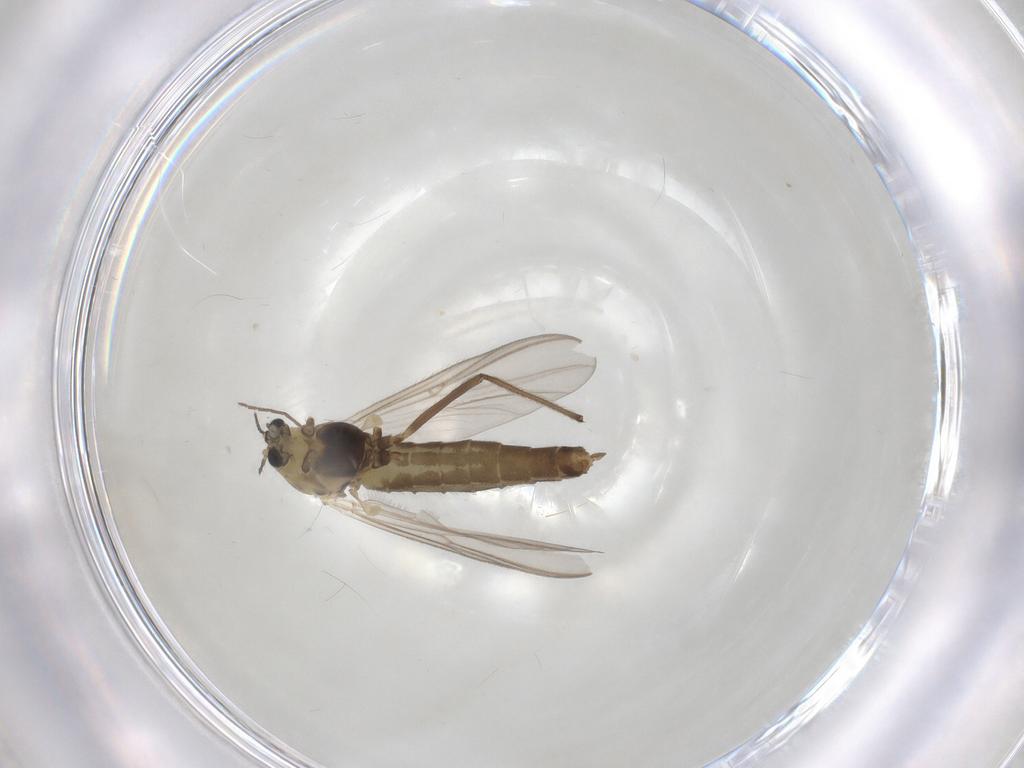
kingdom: Animalia
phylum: Arthropoda
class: Insecta
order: Diptera
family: Chironomidae
